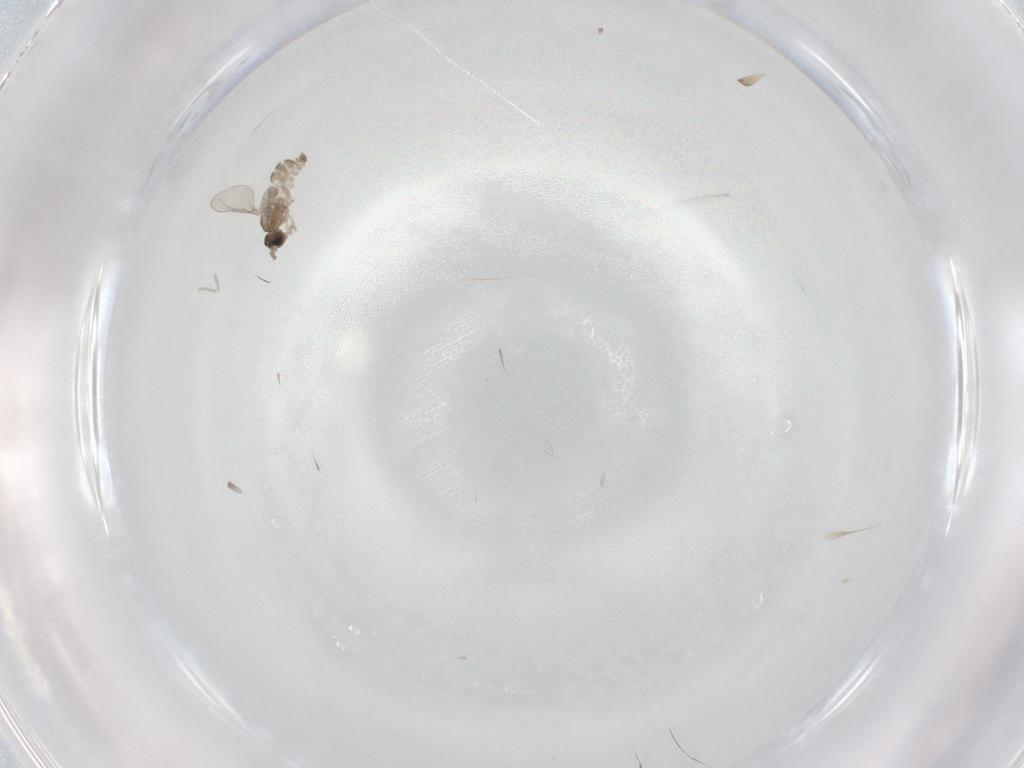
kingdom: Animalia
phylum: Arthropoda
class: Insecta
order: Diptera
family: Cecidomyiidae
